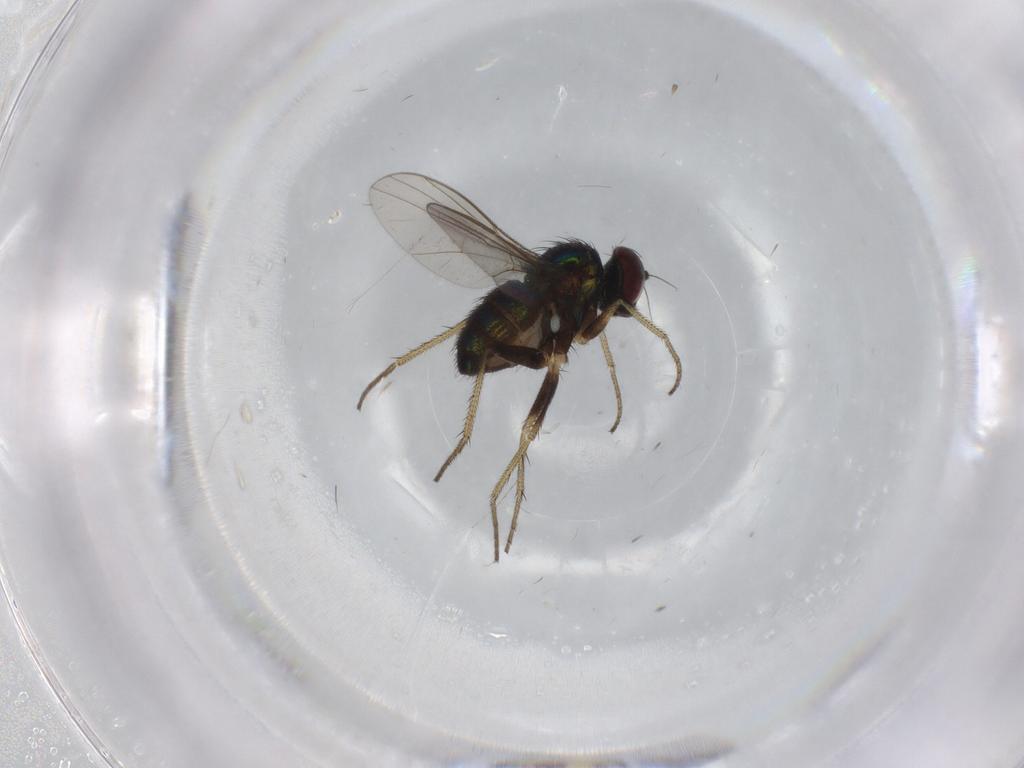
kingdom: Animalia
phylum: Arthropoda
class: Insecta
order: Diptera
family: Dolichopodidae
